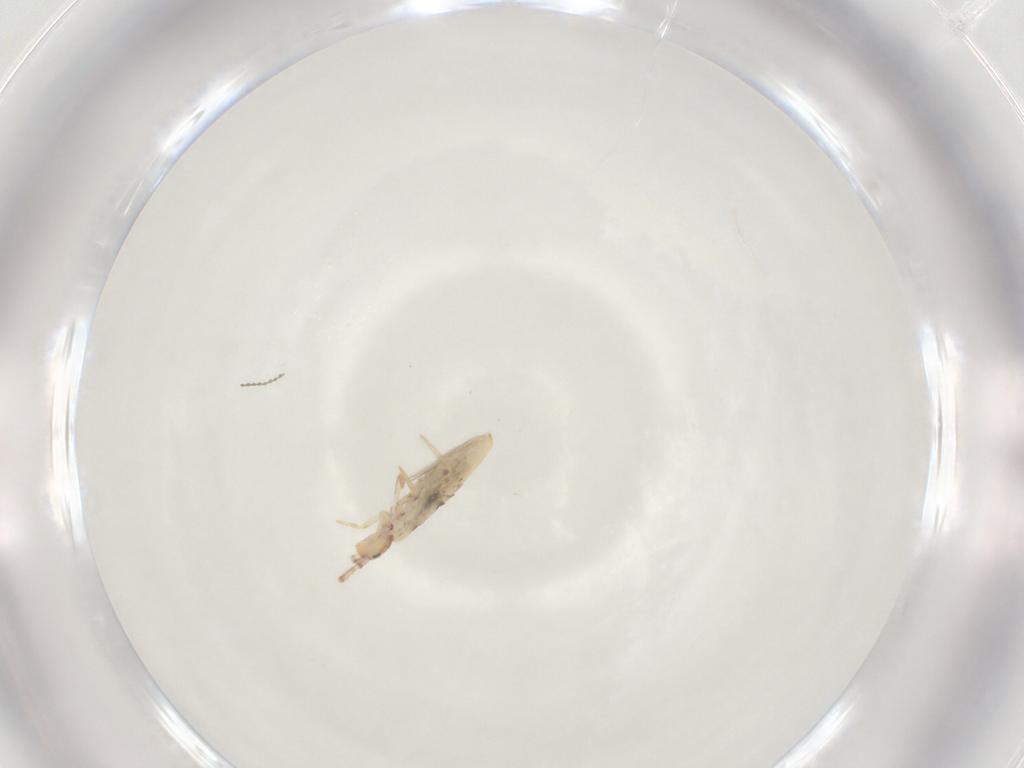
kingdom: Animalia
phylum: Arthropoda
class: Collembola
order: Entomobryomorpha
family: Entomobryidae
